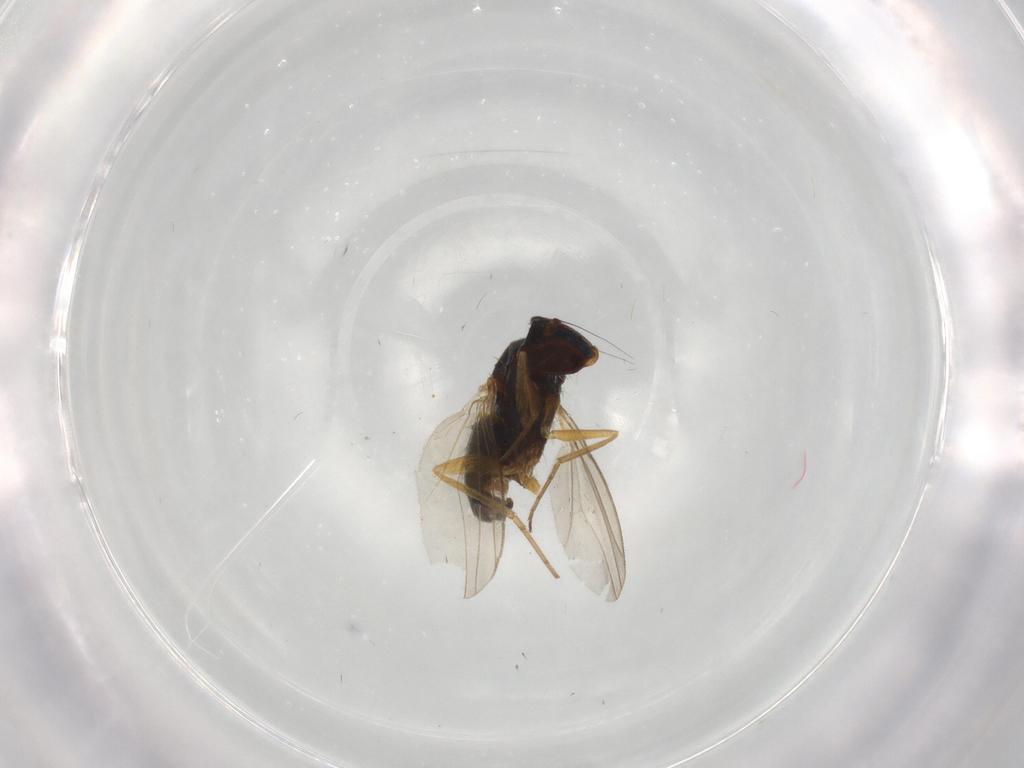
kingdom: Animalia
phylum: Arthropoda
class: Insecta
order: Diptera
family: Dolichopodidae
